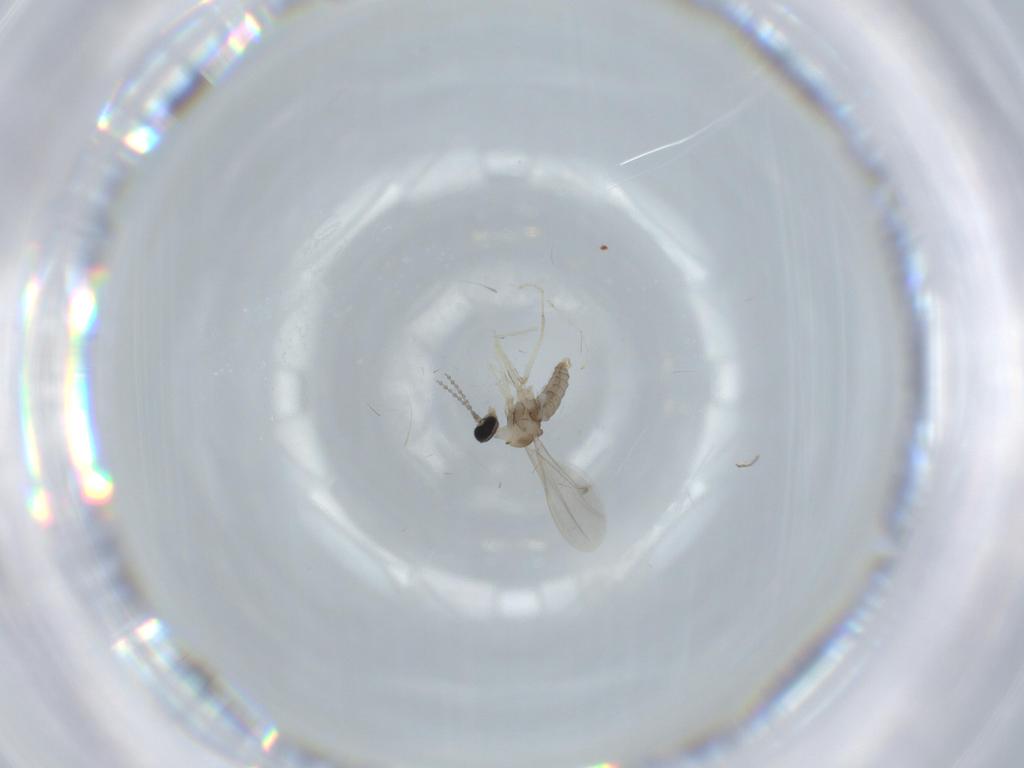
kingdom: Animalia
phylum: Arthropoda
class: Insecta
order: Diptera
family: Cecidomyiidae
